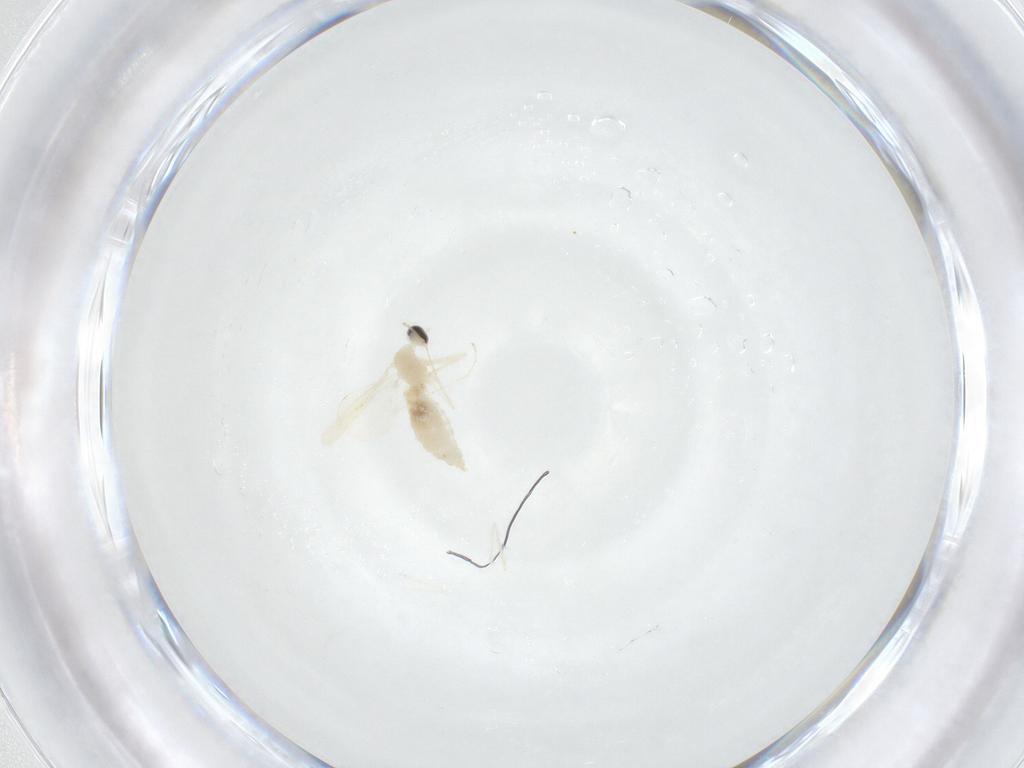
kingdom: Animalia
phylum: Arthropoda
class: Insecta
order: Diptera
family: Cecidomyiidae
